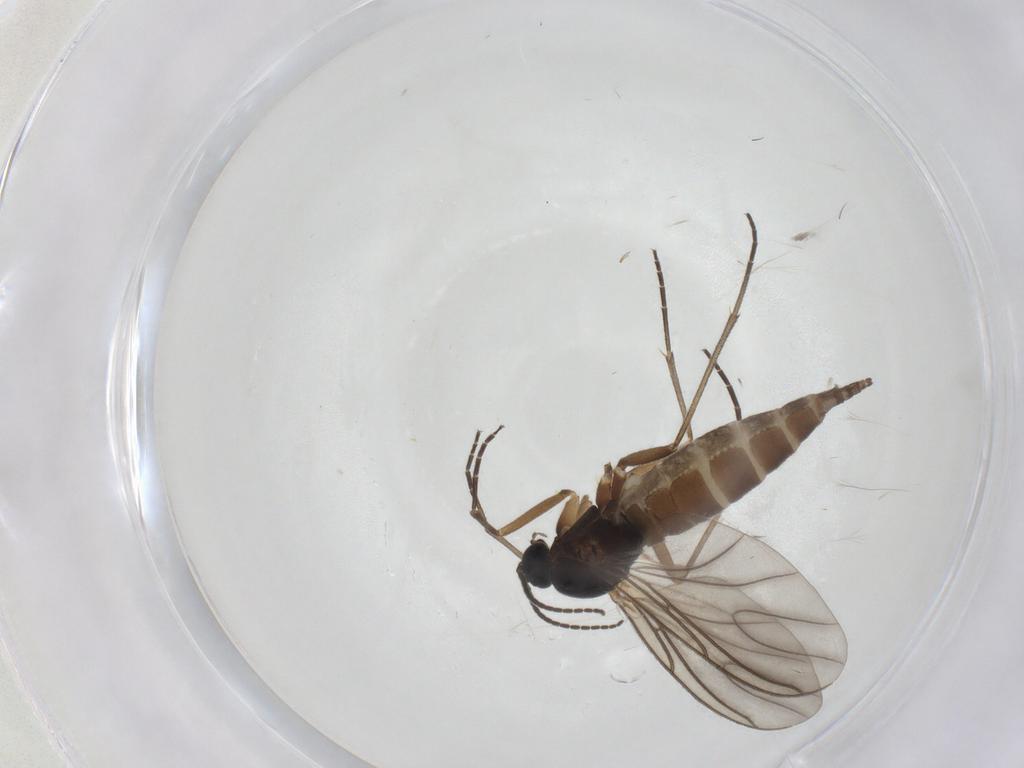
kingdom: Animalia
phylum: Arthropoda
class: Insecta
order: Diptera
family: Sciaridae
